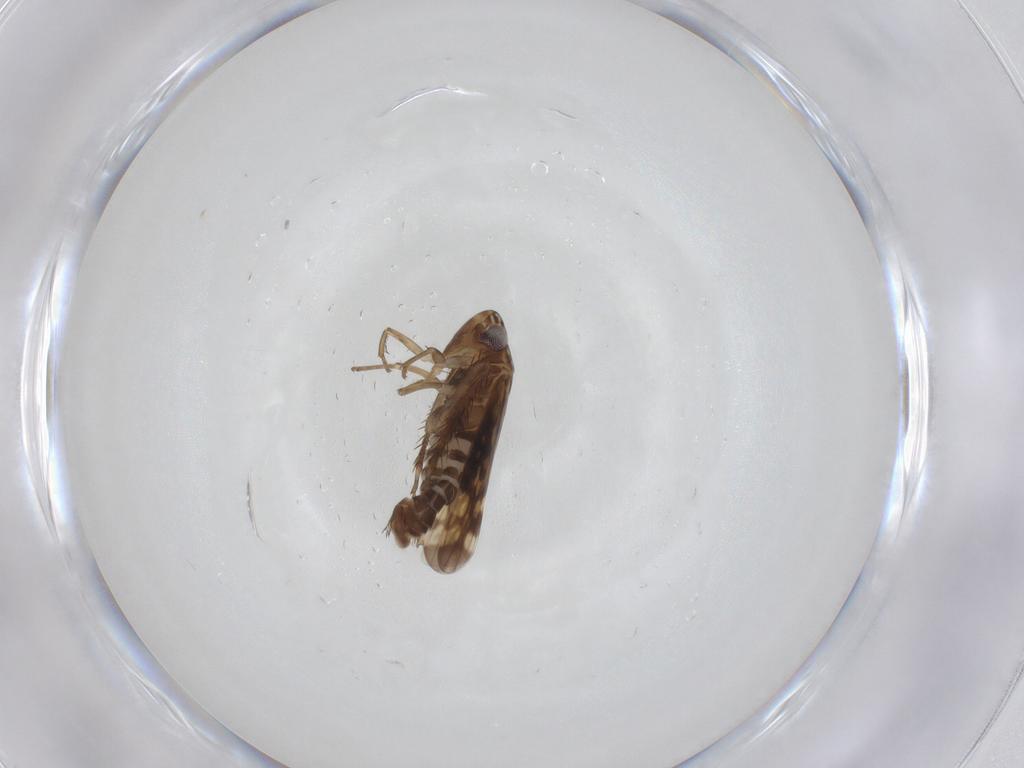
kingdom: Animalia
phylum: Arthropoda
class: Insecta
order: Hemiptera
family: Cicadellidae
